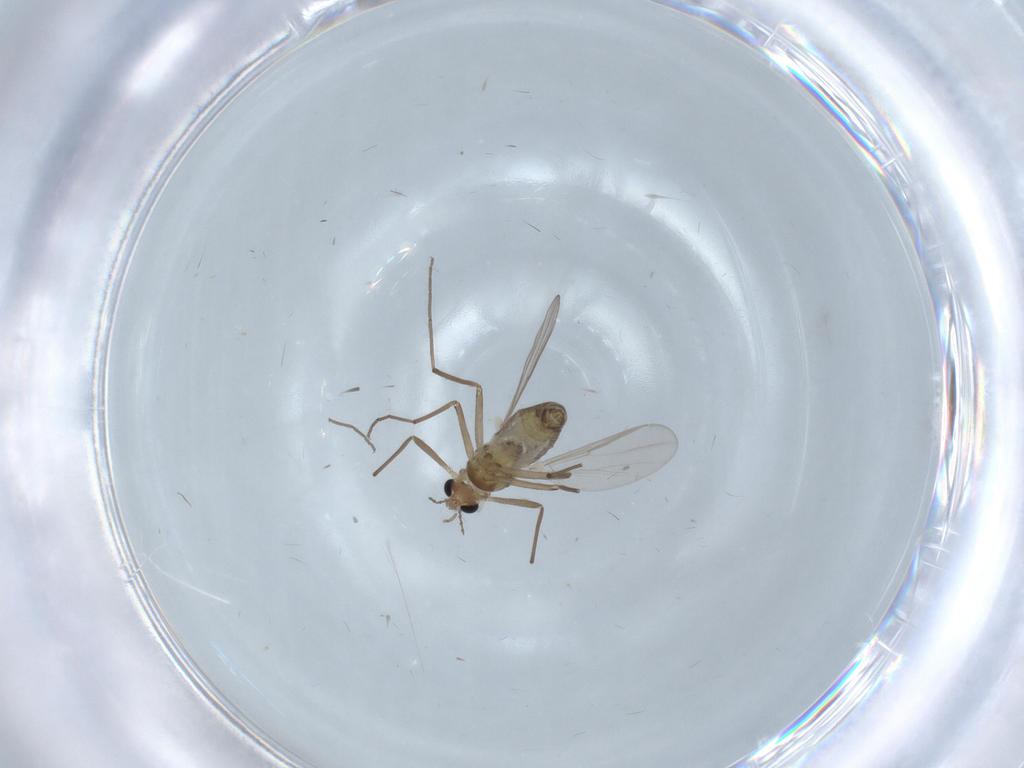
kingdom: Animalia
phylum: Arthropoda
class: Insecta
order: Diptera
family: Chironomidae
